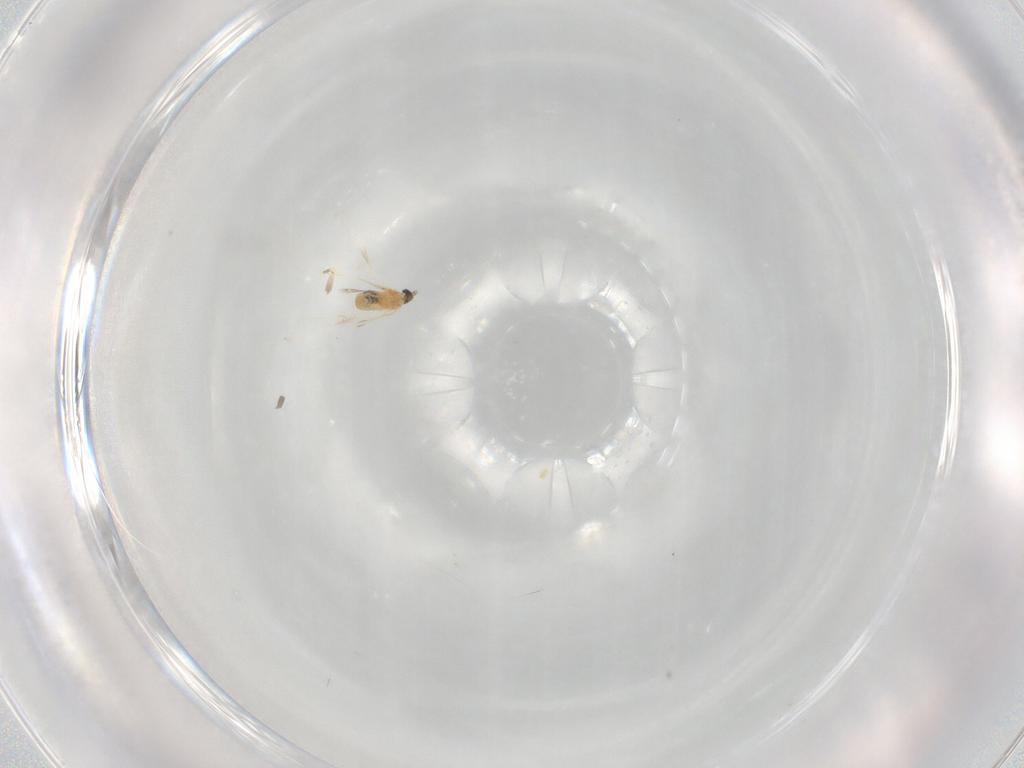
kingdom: Animalia
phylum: Arthropoda
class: Insecta
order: Diptera
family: Cecidomyiidae
